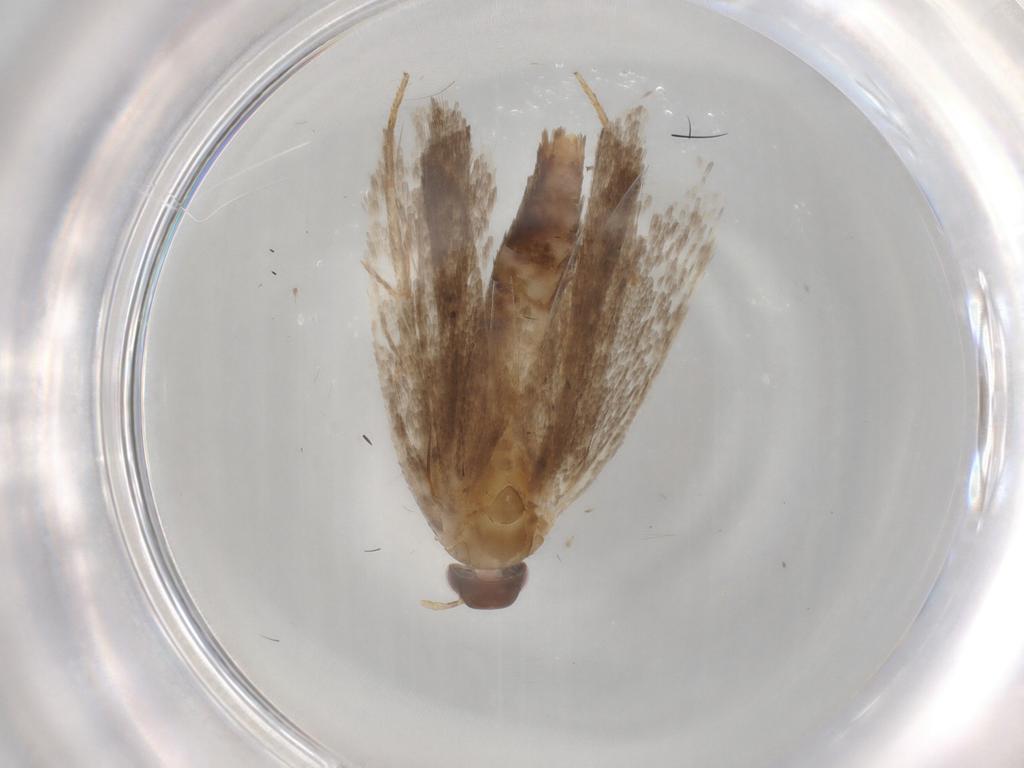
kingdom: Animalia
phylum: Arthropoda
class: Insecta
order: Lepidoptera
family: Gelechiidae
